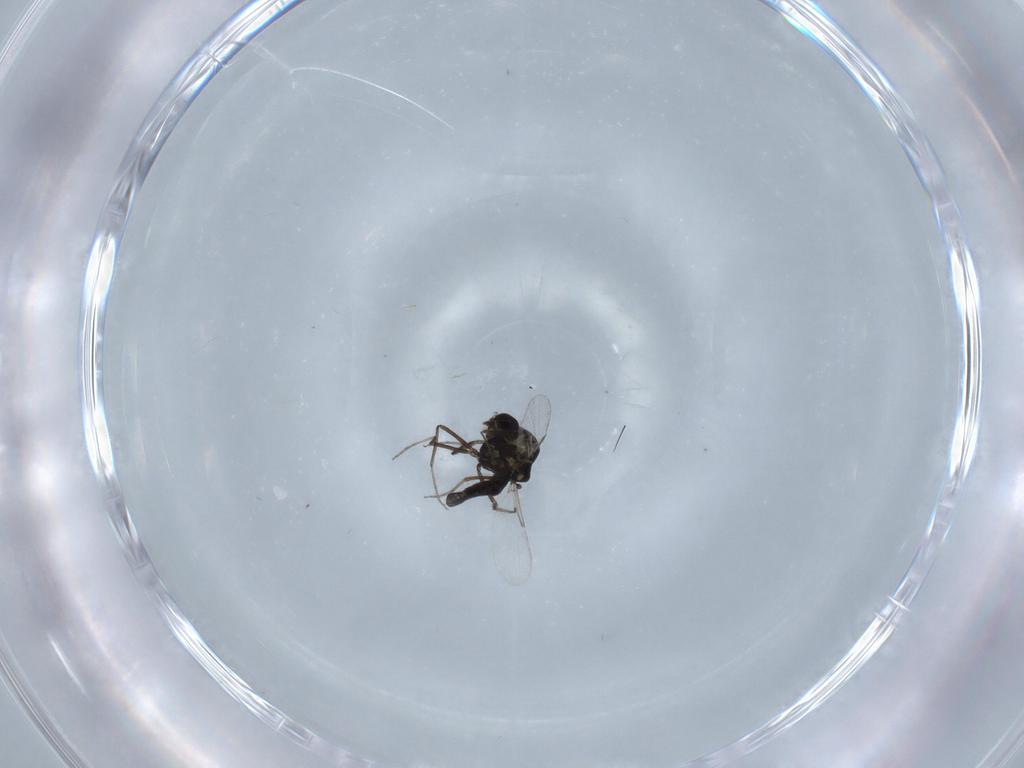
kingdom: Animalia
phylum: Arthropoda
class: Insecta
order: Diptera
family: Ceratopogonidae
